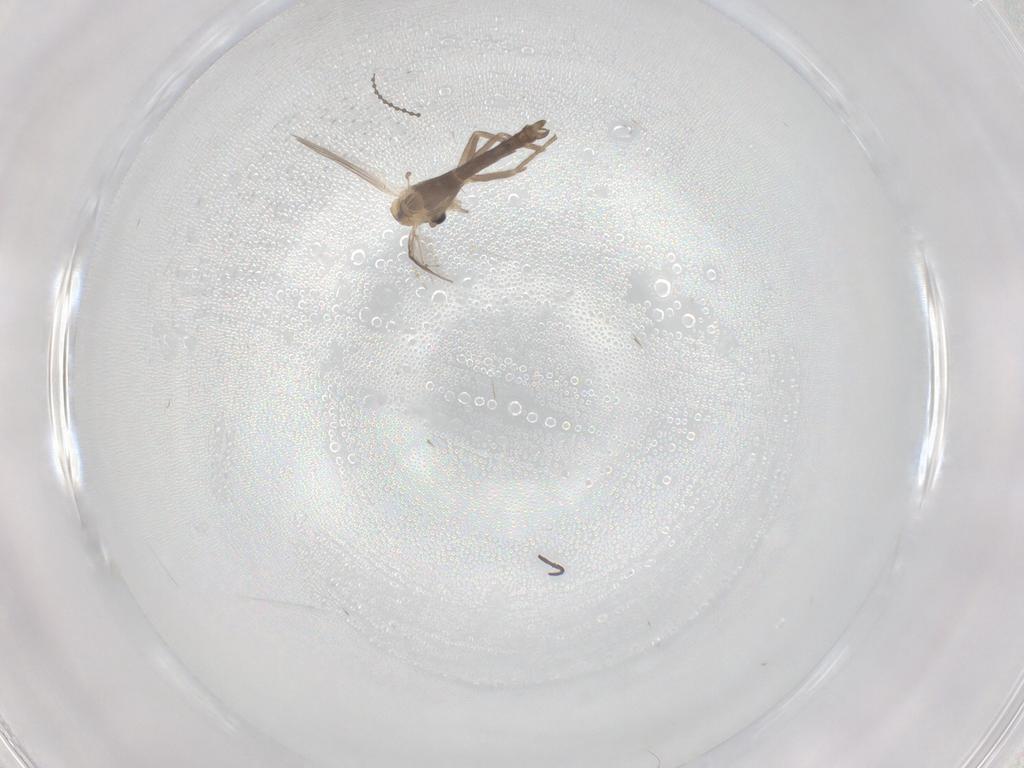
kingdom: Animalia
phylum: Arthropoda
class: Insecta
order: Diptera
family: Chironomidae
